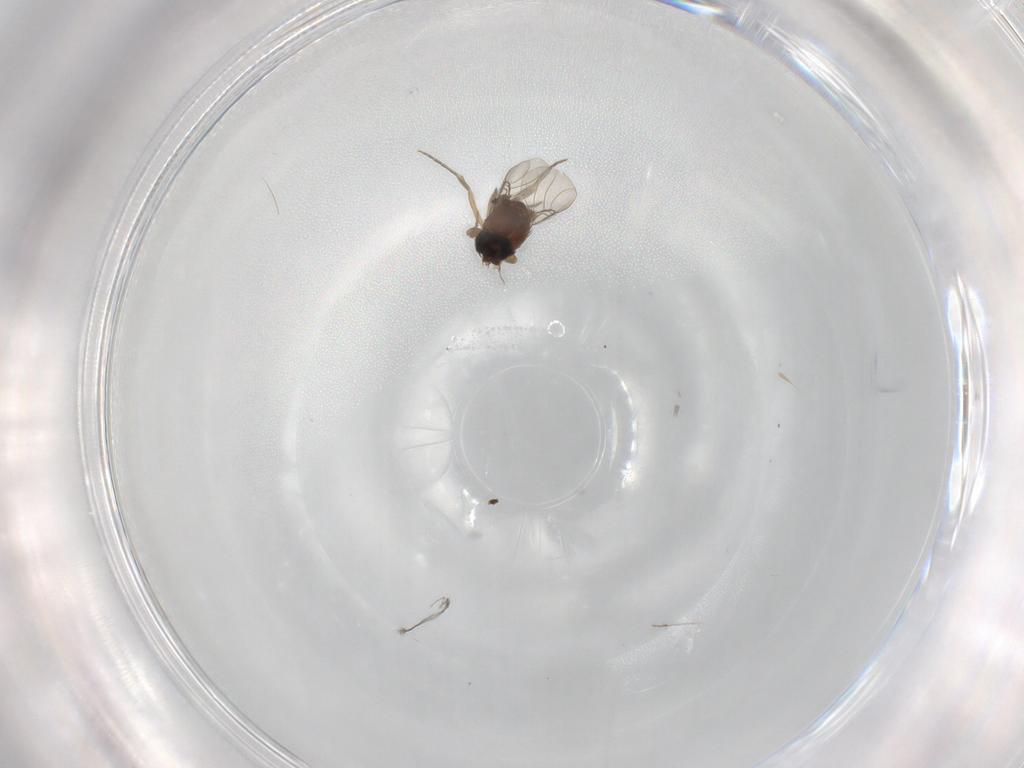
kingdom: Animalia
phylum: Arthropoda
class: Insecta
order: Diptera
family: Phoridae
